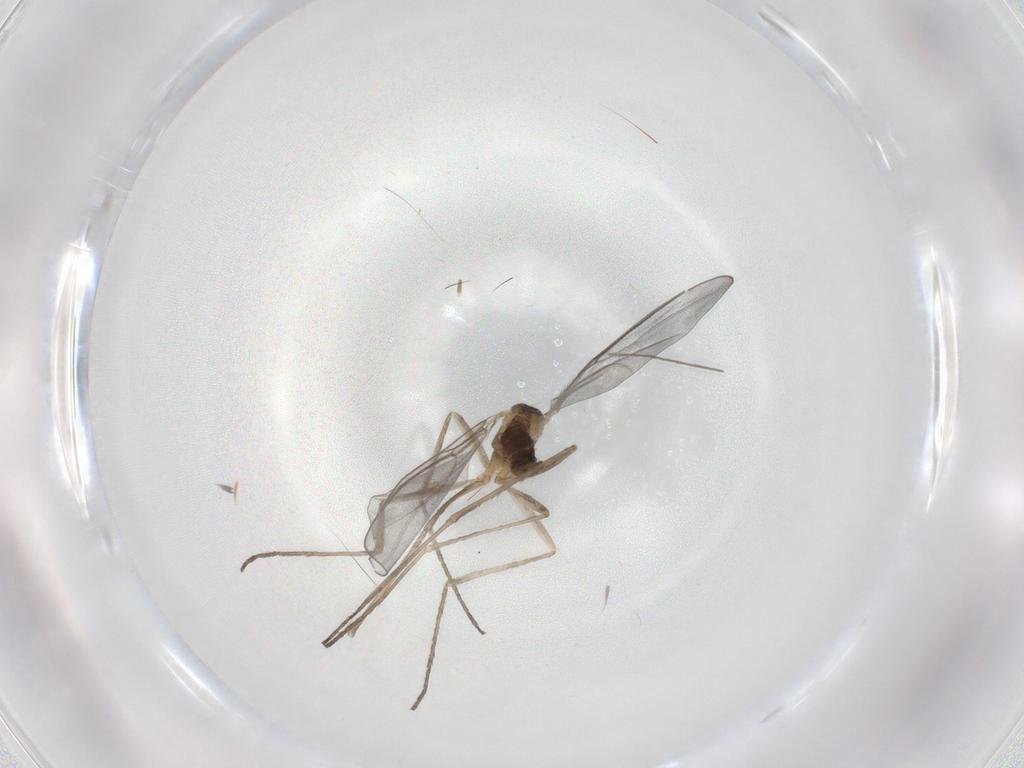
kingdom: Animalia
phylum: Arthropoda
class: Insecta
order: Diptera
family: Cecidomyiidae
